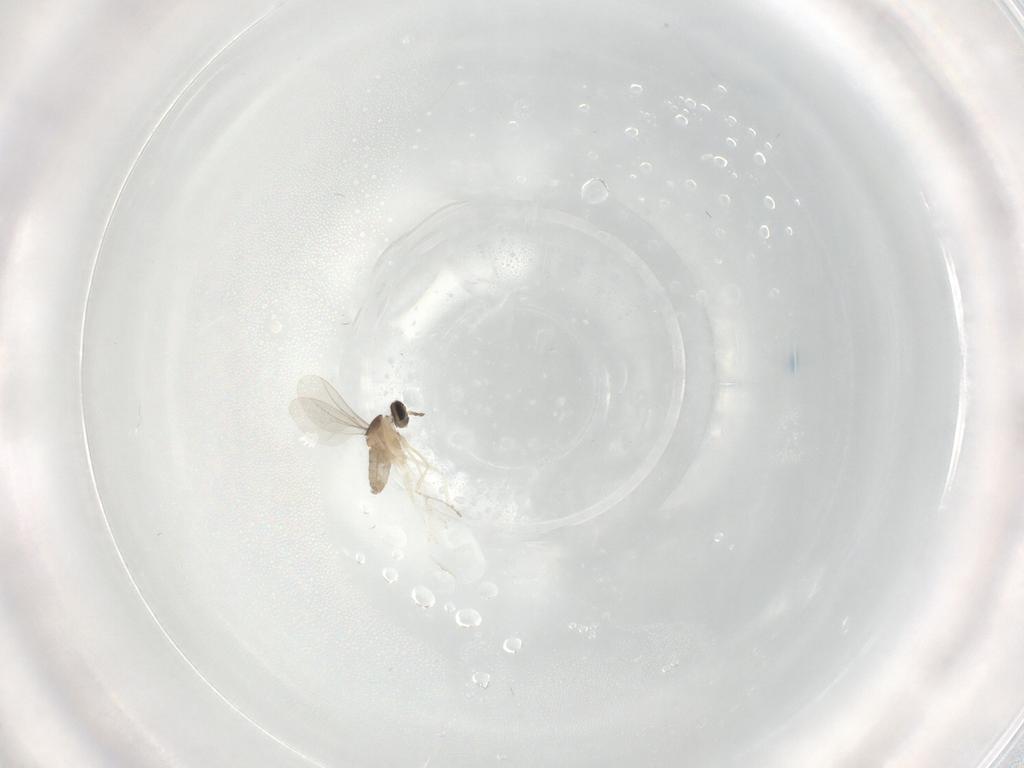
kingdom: Animalia
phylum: Arthropoda
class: Insecta
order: Diptera
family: Cecidomyiidae
